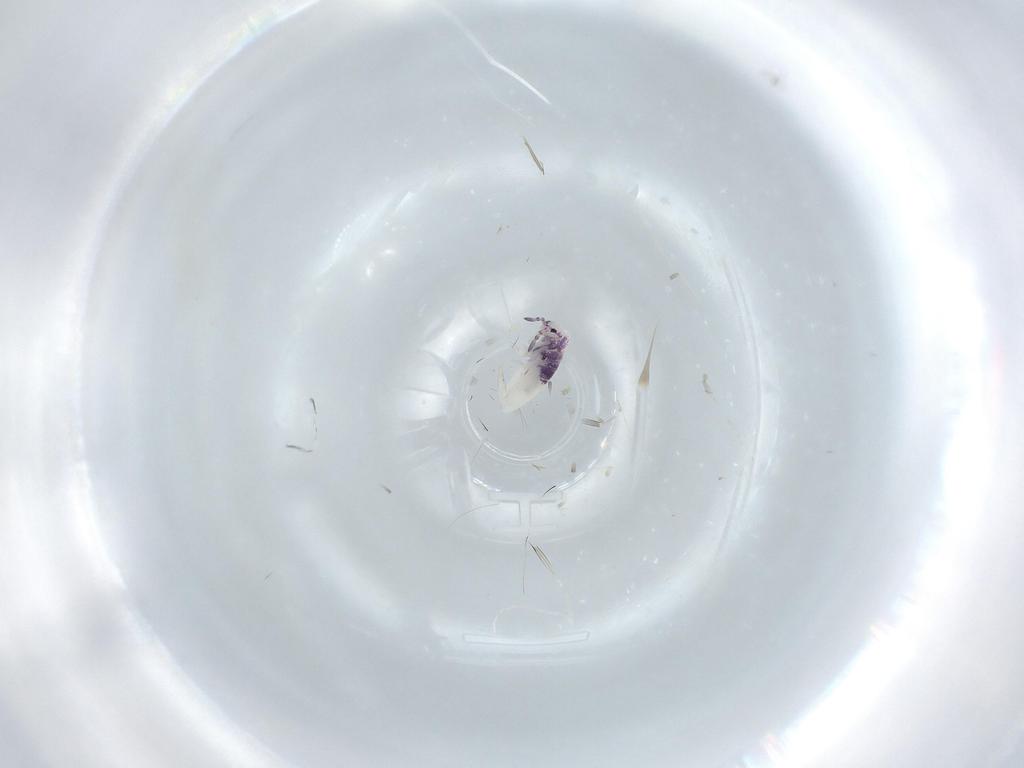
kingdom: Animalia
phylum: Arthropoda
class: Collembola
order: Entomobryomorpha
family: Entomobryidae
